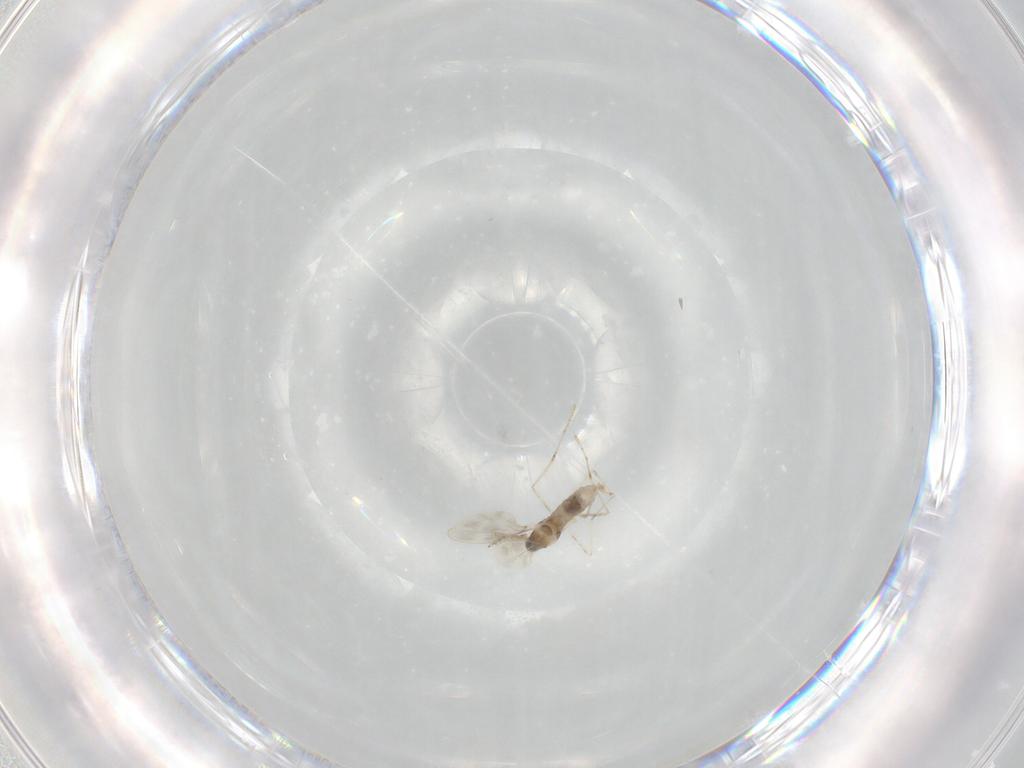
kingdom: Animalia
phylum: Arthropoda
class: Insecta
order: Diptera
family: Cecidomyiidae
